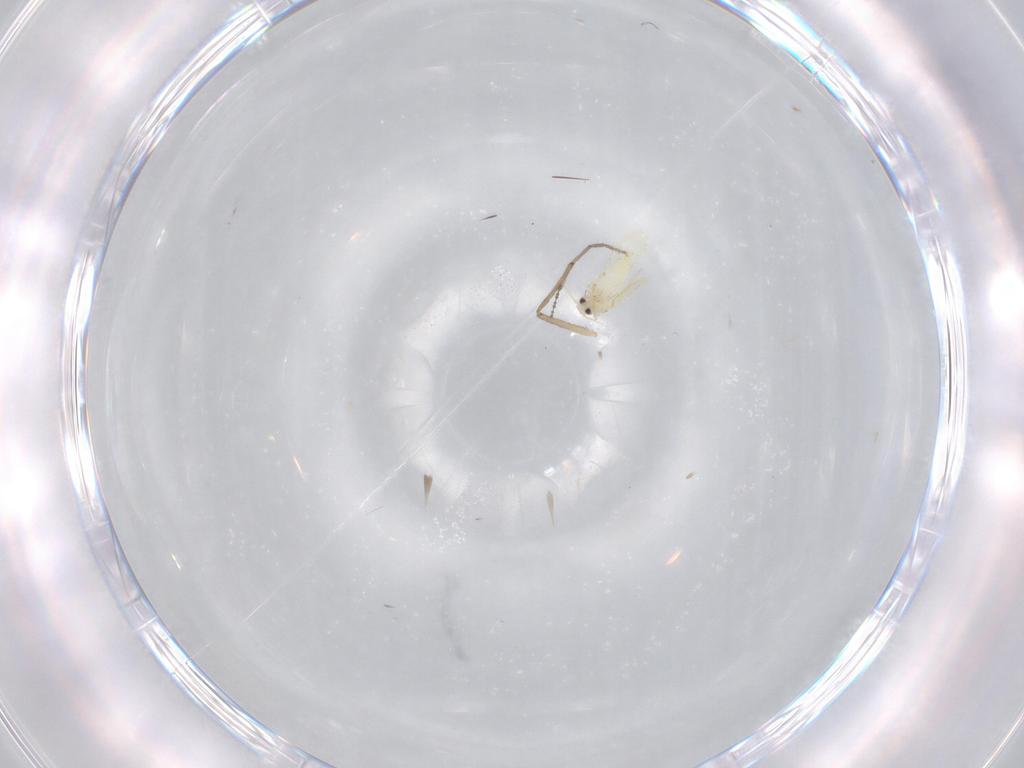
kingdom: Animalia
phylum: Arthropoda
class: Insecta
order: Hemiptera
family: Aleyrodidae
